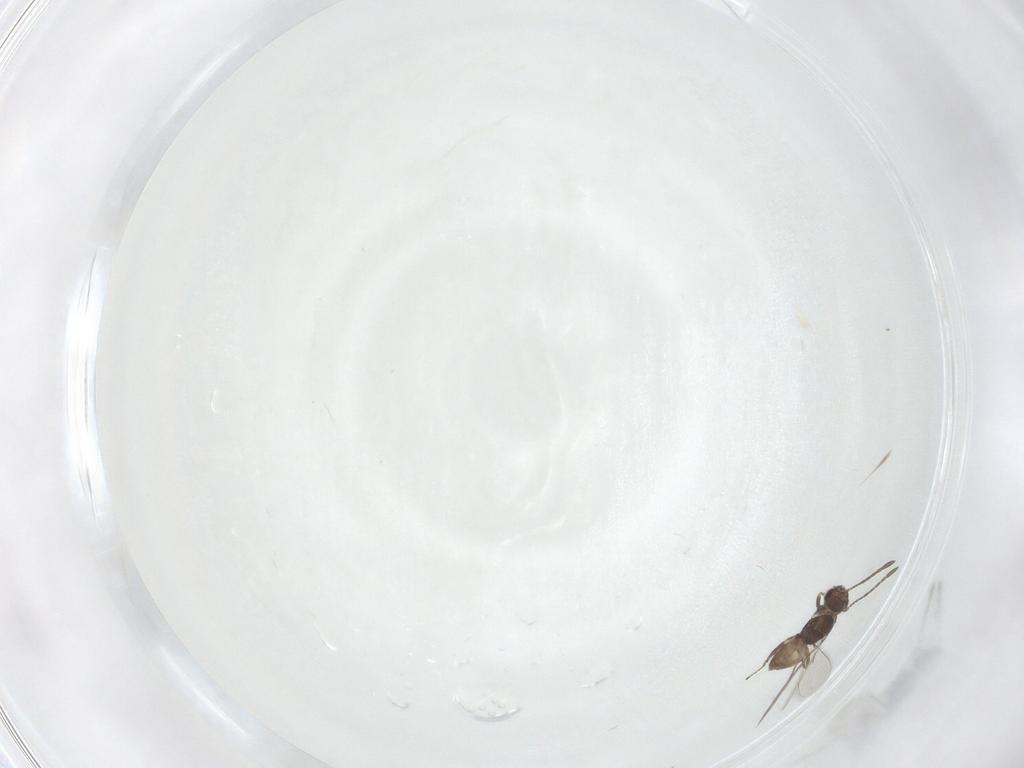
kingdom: Animalia
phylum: Arthropoda
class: Insecta
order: Hymenoptera
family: Mymaridae
